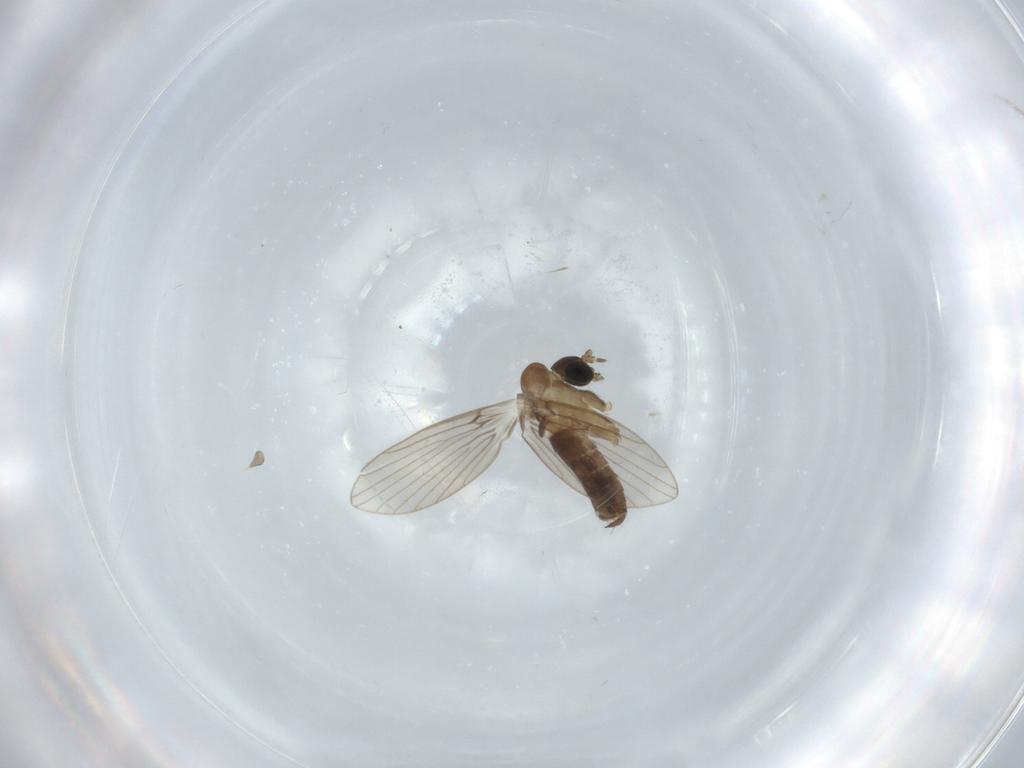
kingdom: Animalia
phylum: Arthropoda
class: Insecta
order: Diptera
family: Psychodidae
